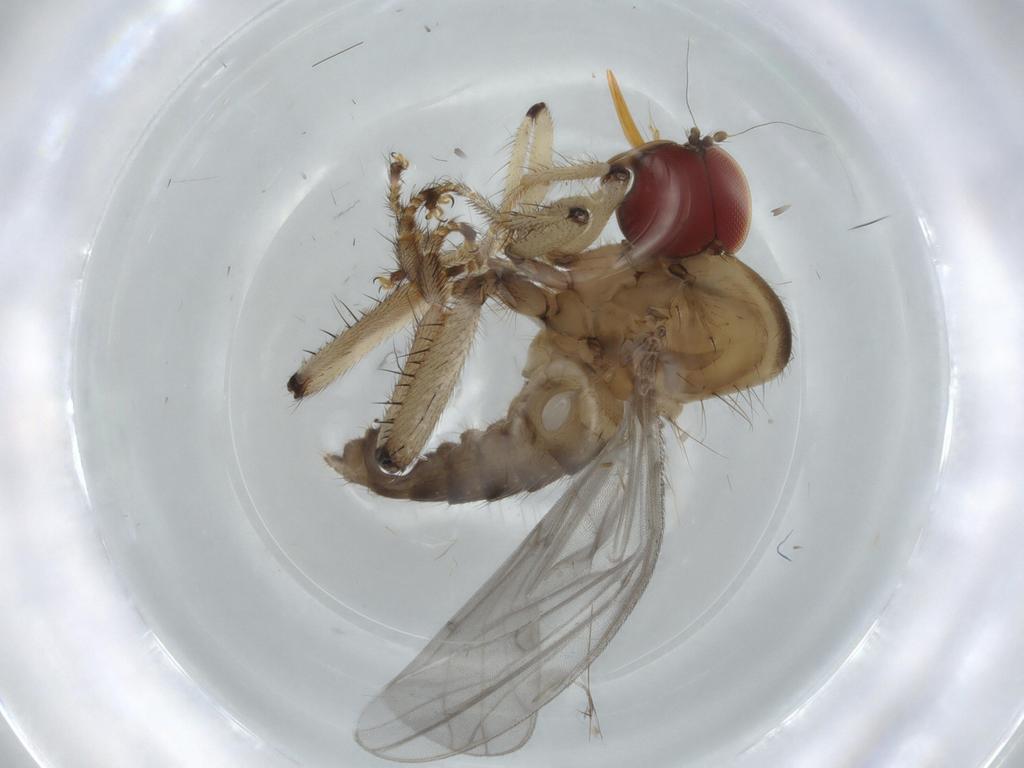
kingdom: Animalia
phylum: Arthropoda
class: Insecta
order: Diptera
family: Hybotidae
